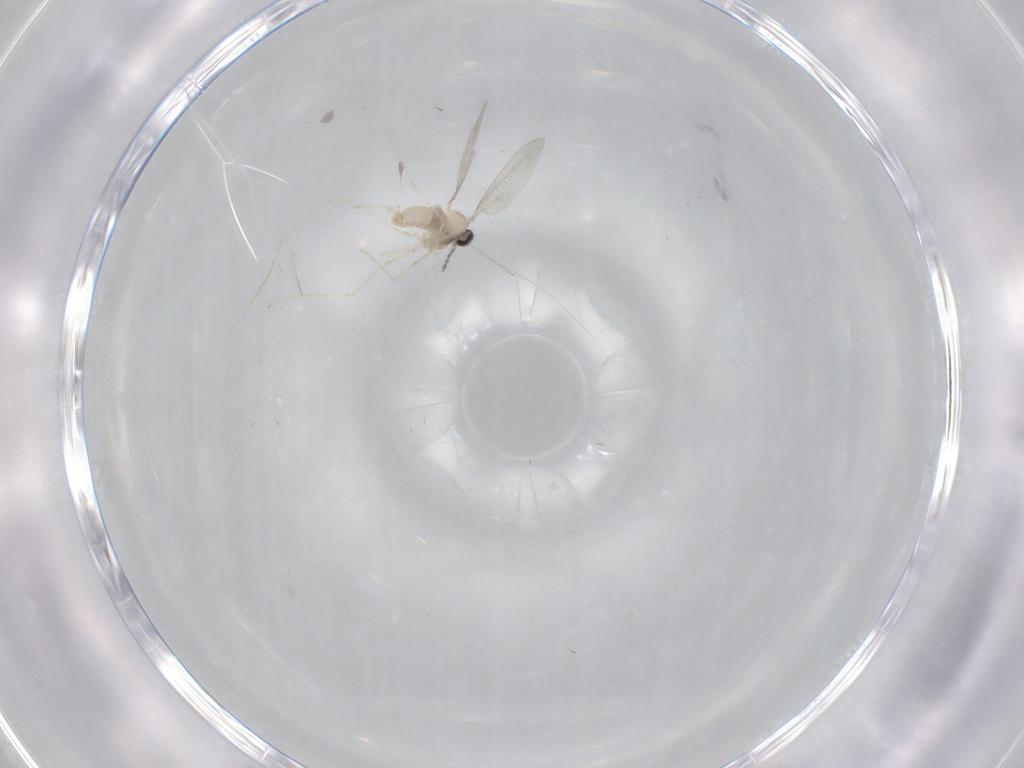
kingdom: Animalia
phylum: Arthropoda
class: Insecta
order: Diptera
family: Cecidomyiidae
